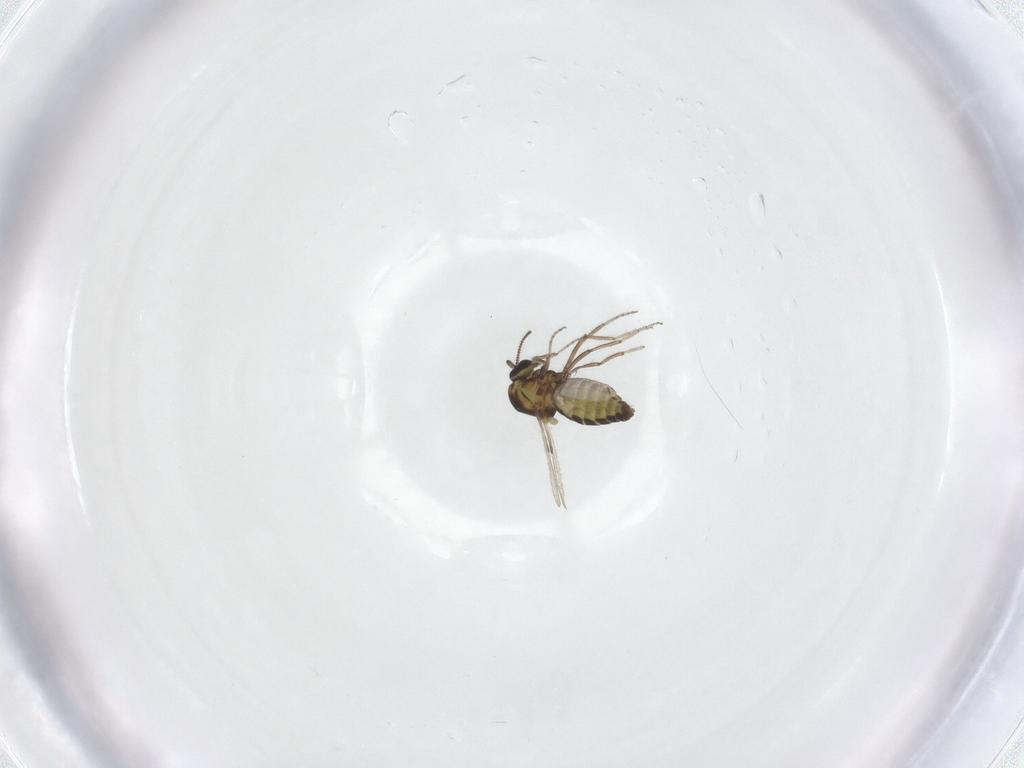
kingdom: Animalia
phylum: Arthropoda
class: Insecta
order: Diptera
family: Ceratopogonidae
